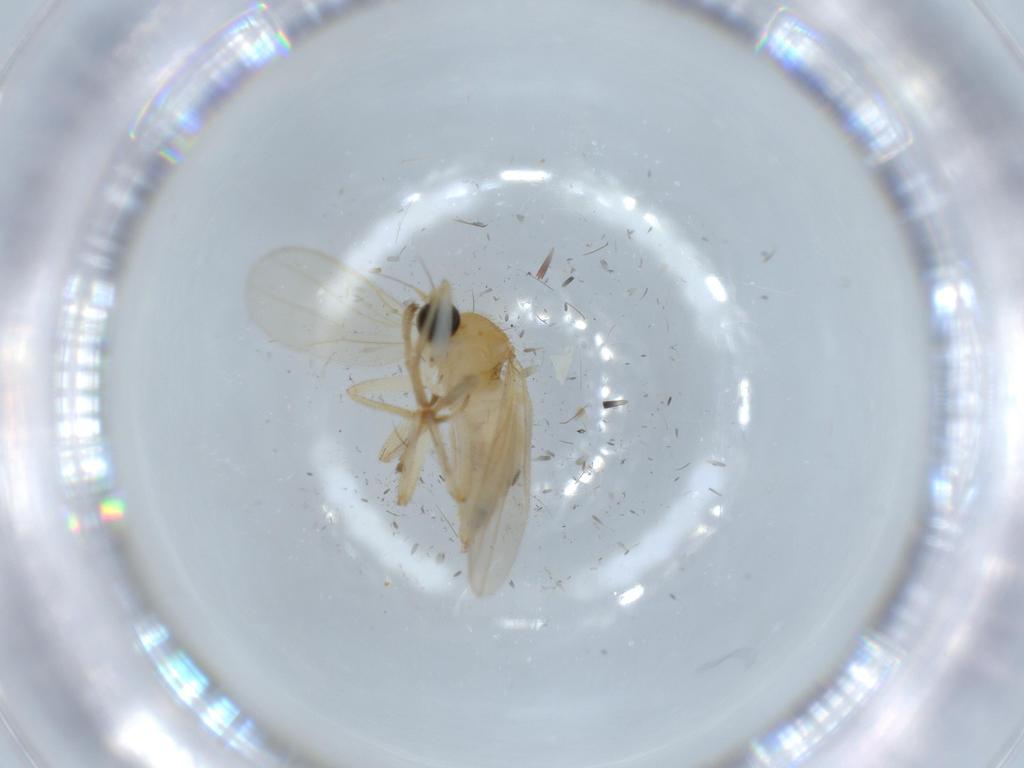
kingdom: Animalia
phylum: Arthropoda
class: Insecta
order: Diptera
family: Hybotidae
